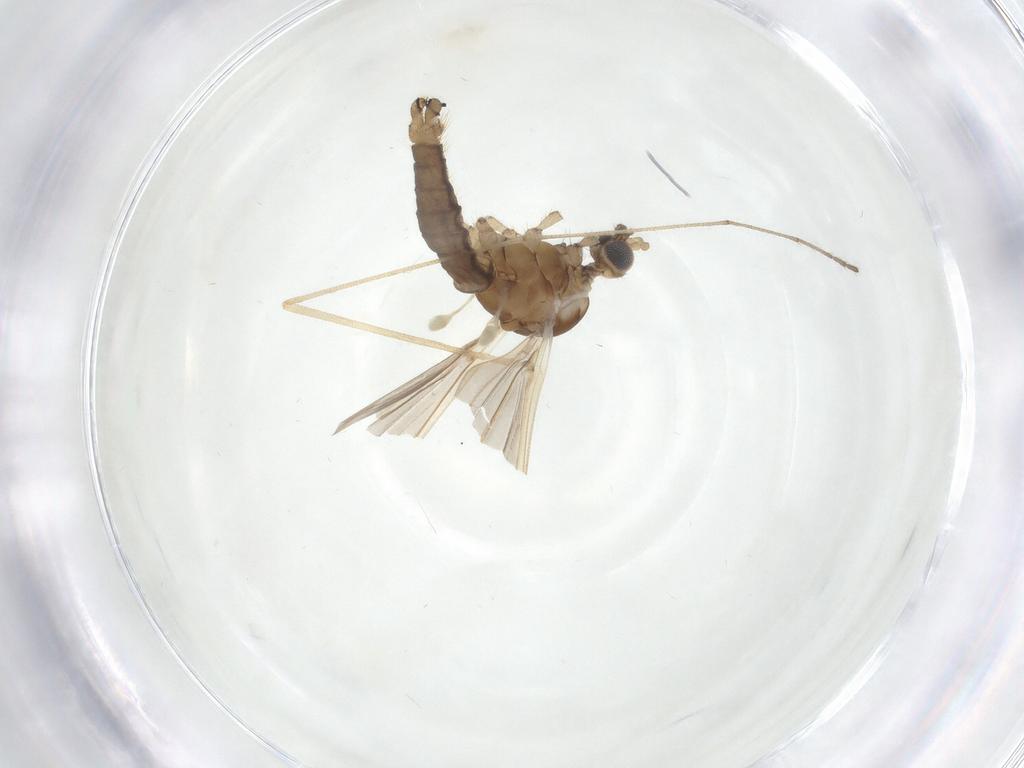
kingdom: Animalia
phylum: Arthropoda
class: Insecta
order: Diptera
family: Limoniidae
